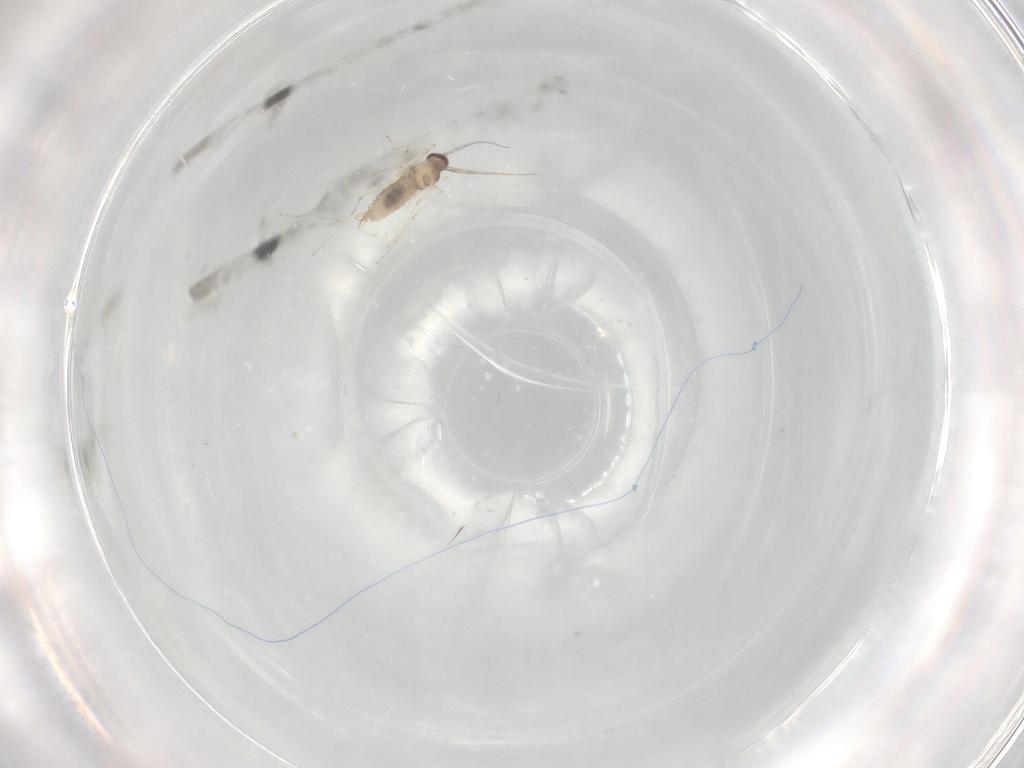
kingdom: Animalia
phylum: Arthropoda
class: Insecta
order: Diptera
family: Cecidomyiidae
